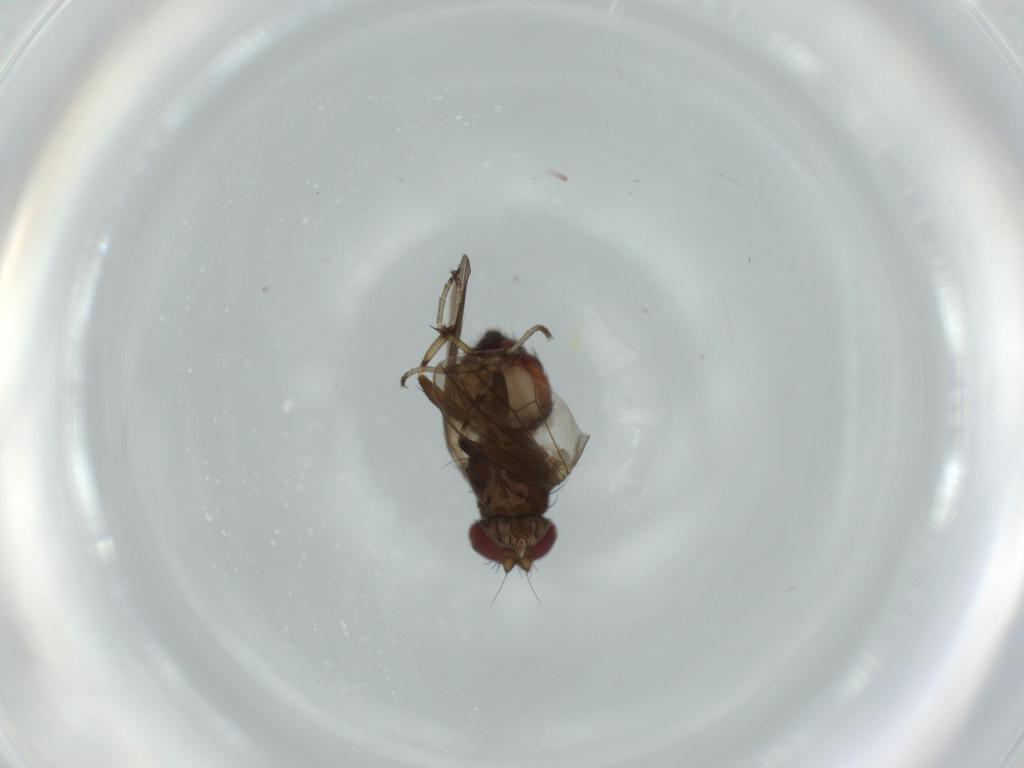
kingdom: Animalia
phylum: Arthropoda
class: Insecta
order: Diptera
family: Heleomyzidae
